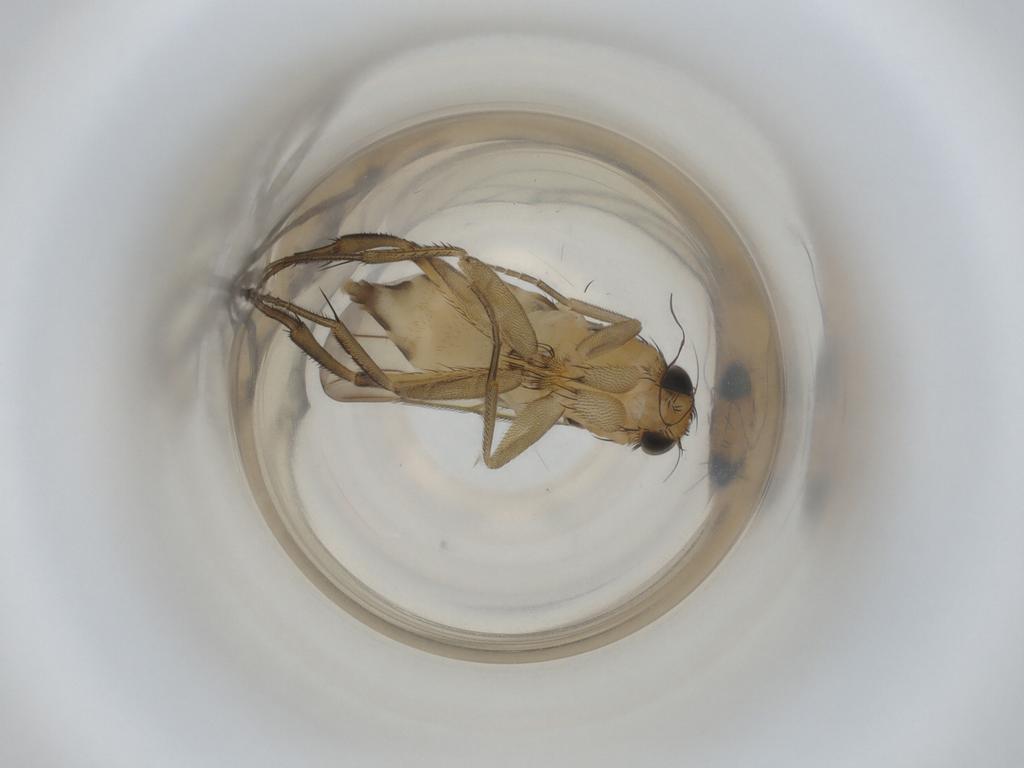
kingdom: Animalia
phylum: Arthropoda
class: Insecta
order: Diptera
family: Phoridae
